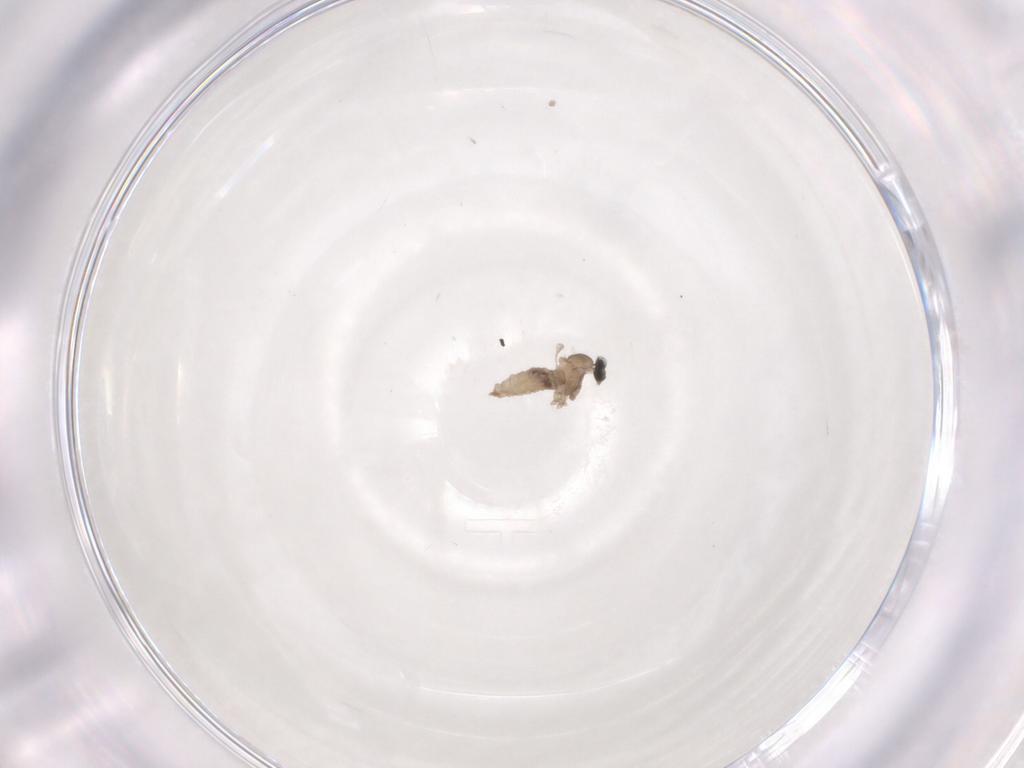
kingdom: Animalia
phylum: Arthropoda
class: Insecta
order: Diptera
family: Cecidomyiidae
